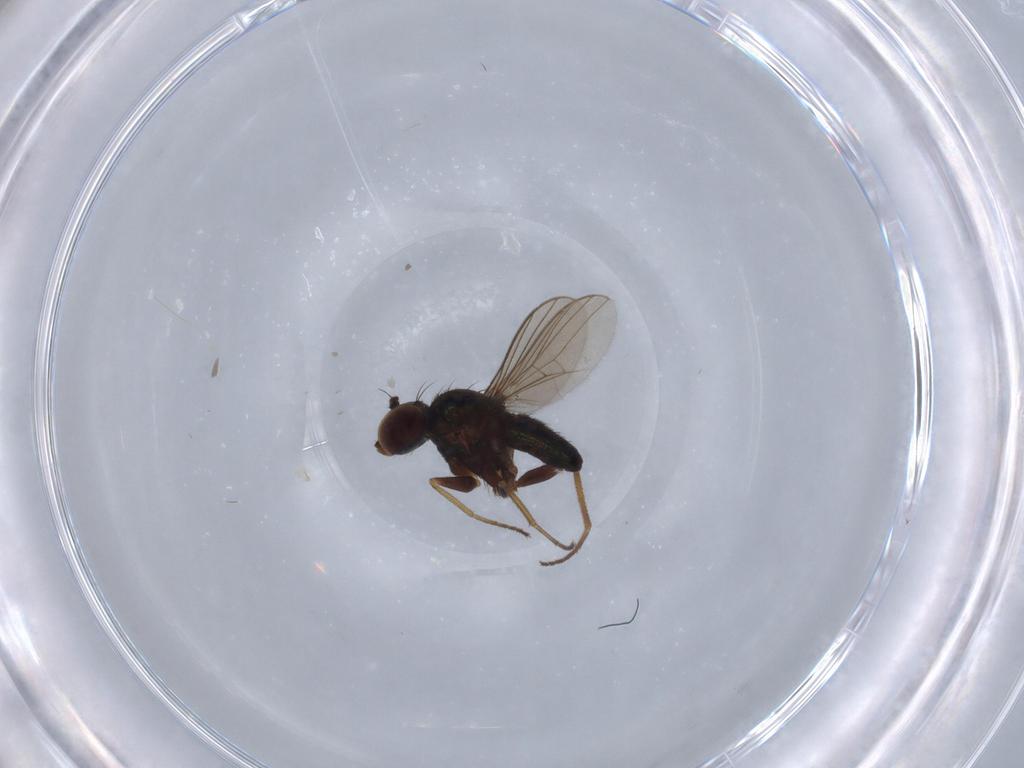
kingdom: Animalia
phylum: Arthropoda
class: Insecta
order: Diptera
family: Dolichopodidae
